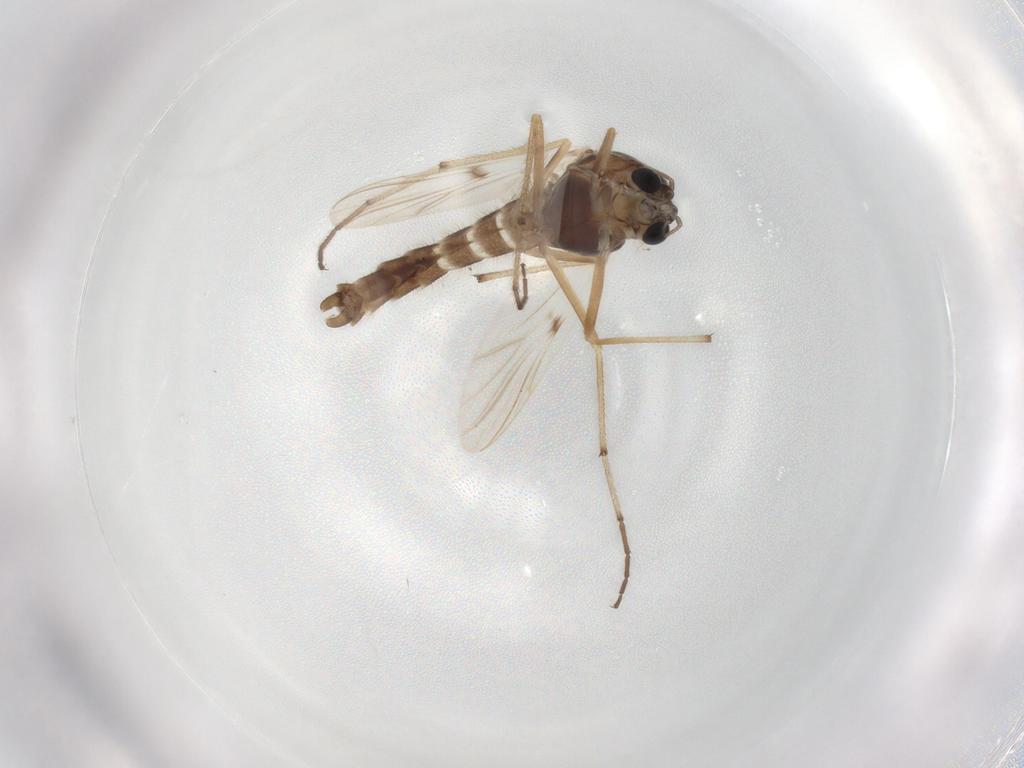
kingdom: Animalia
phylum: Arthropoda
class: Insecta
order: Diptera
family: Chironomidae
